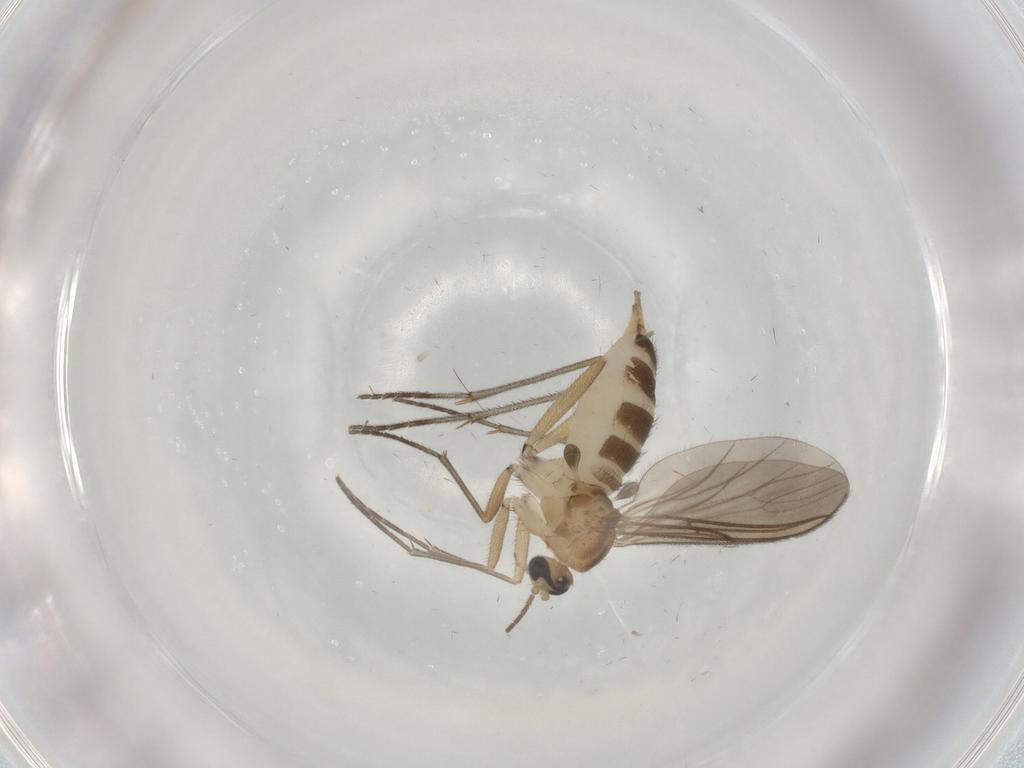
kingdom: Animalia
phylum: Arthropoda
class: Insecta
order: Diptera
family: Sciaridae
